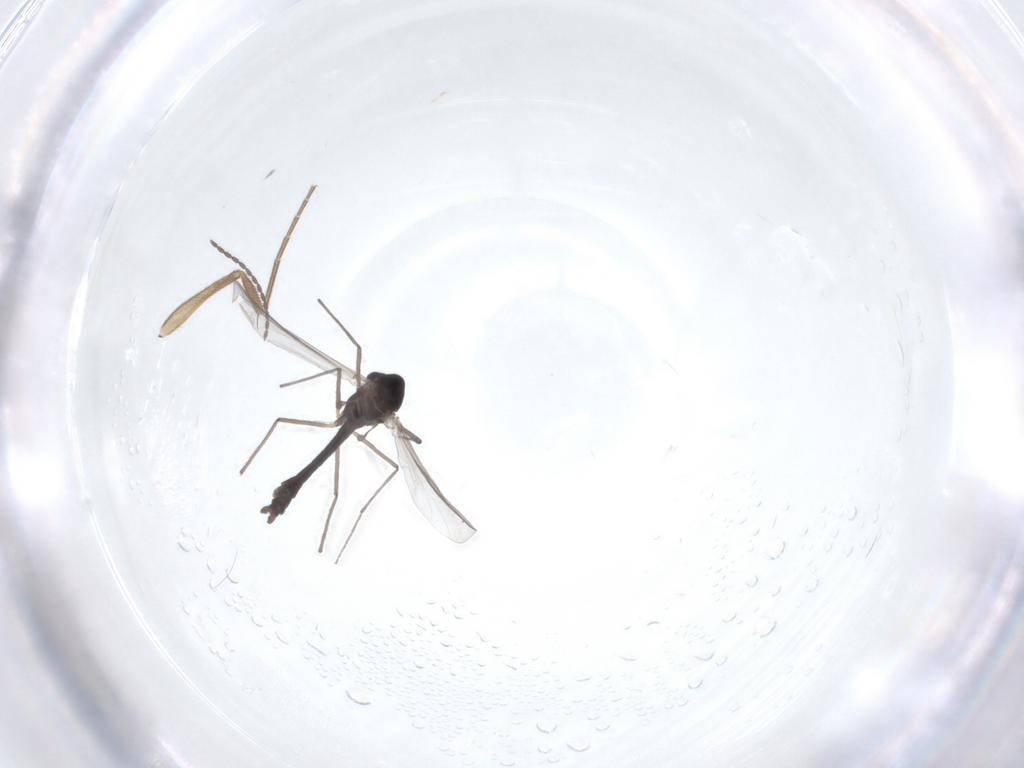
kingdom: Animalia
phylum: Arthropoda
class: Insecta
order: Diptera
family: Chironomidae
